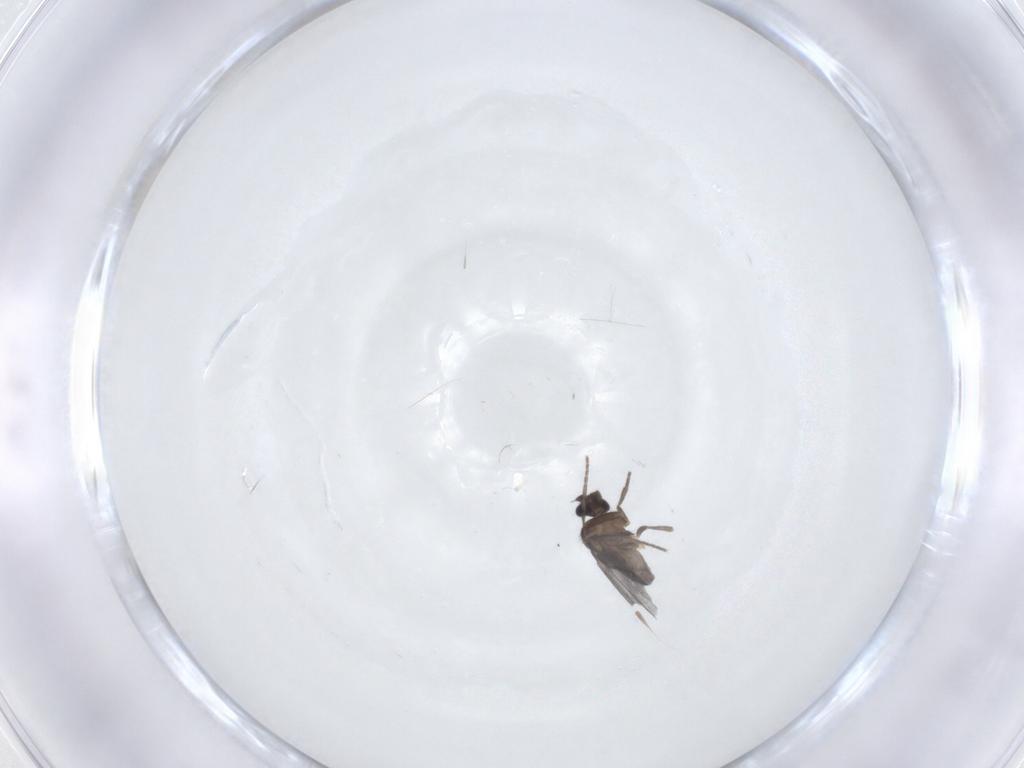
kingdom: Animalia
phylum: Arthropoda
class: Insecta
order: Diptera
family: Phoridae
